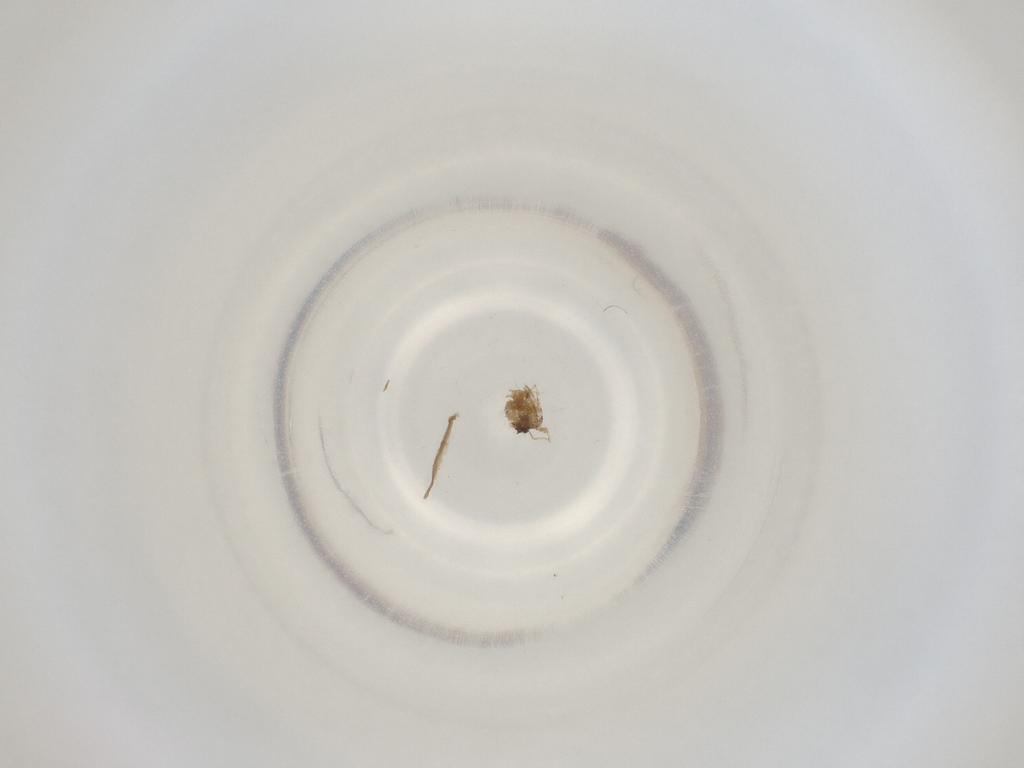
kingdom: Animalia
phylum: Arthropoda
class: Insecta
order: Diptera
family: Cecidomyiidae
